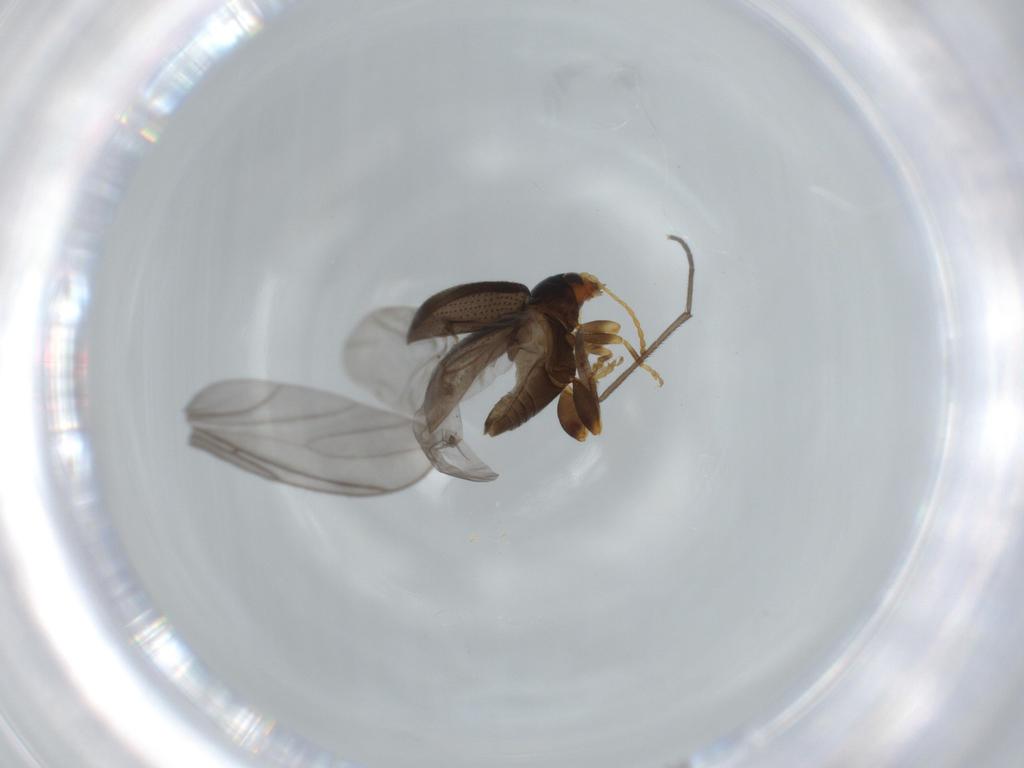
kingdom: Animalia
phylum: Arthropoda
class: Insecta
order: Coleoptera
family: Chrysomelidae
